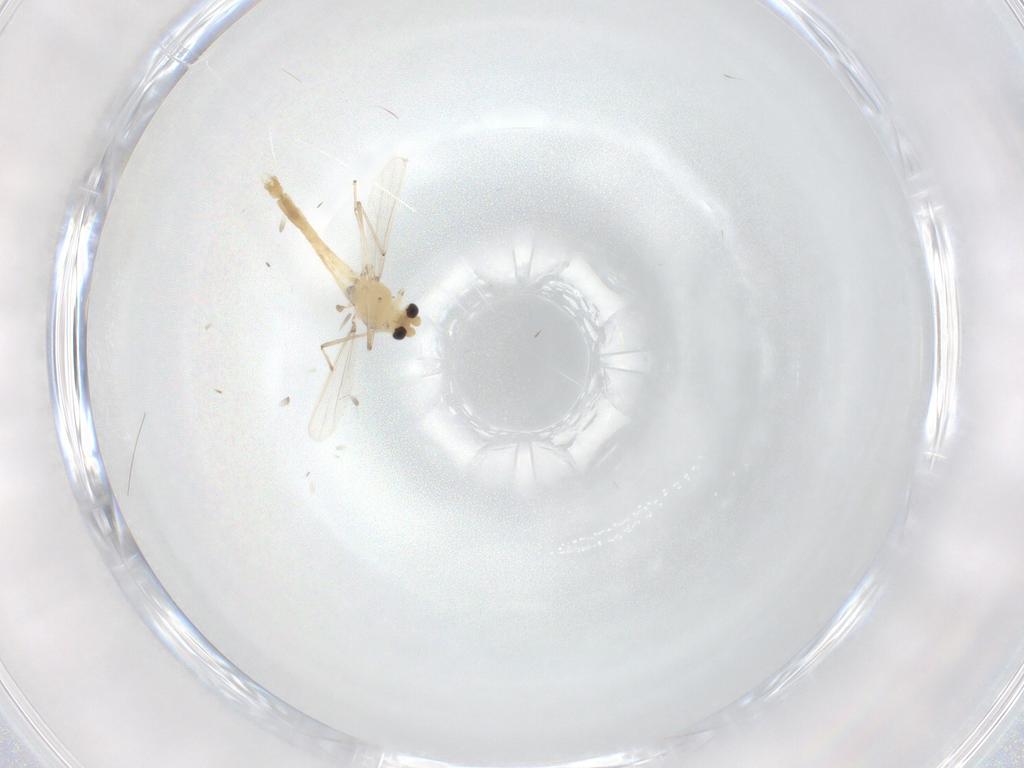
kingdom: Animalia
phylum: Arthropoda
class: Insecta
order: Diptera
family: Chironomidae
